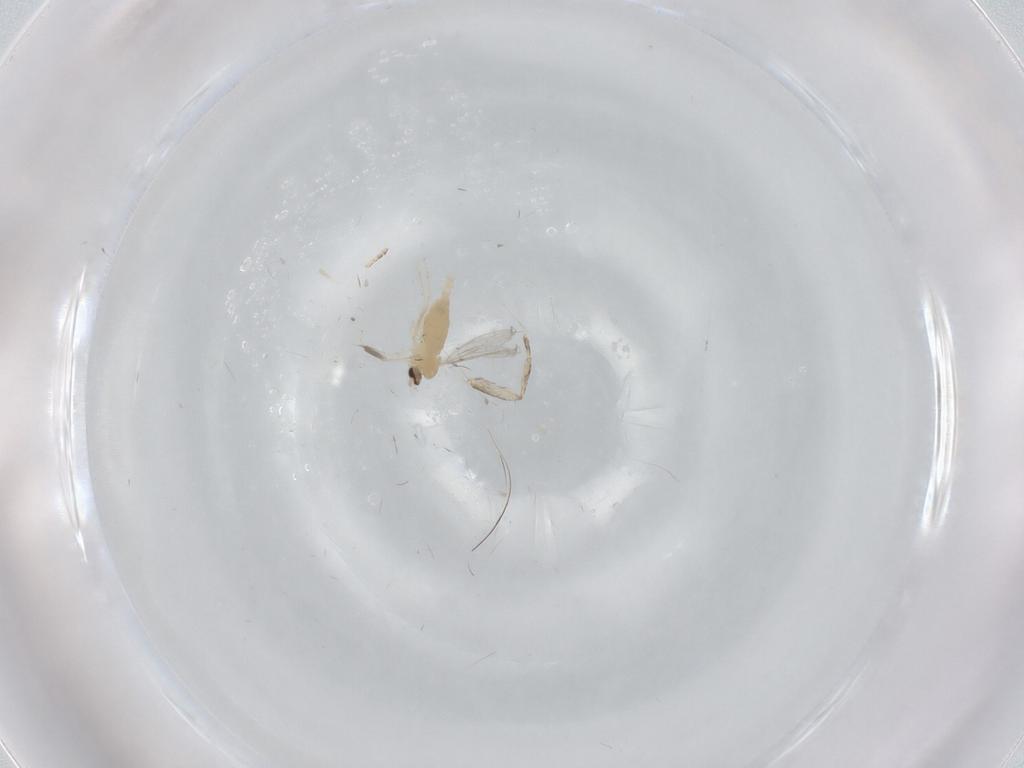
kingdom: Animalia
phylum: Arthropoda
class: Insecta
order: Diptera
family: Cecidomyiidae
